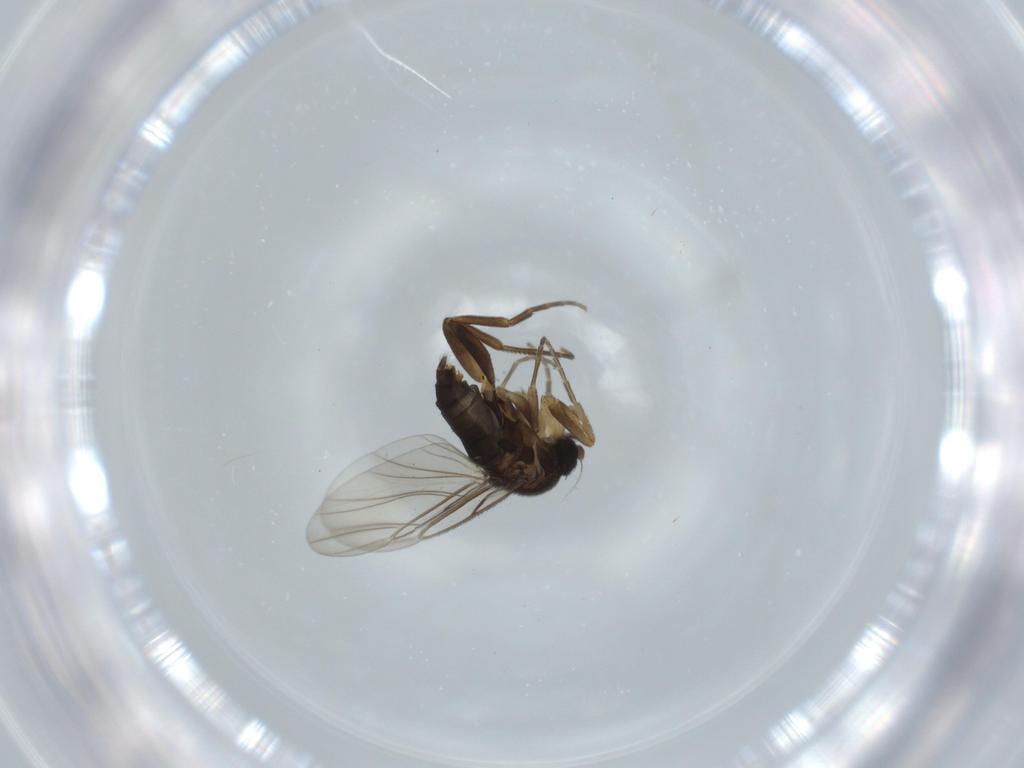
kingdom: Animalia
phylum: Arthropoda
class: Insecta
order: Diptera
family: Phoridae
